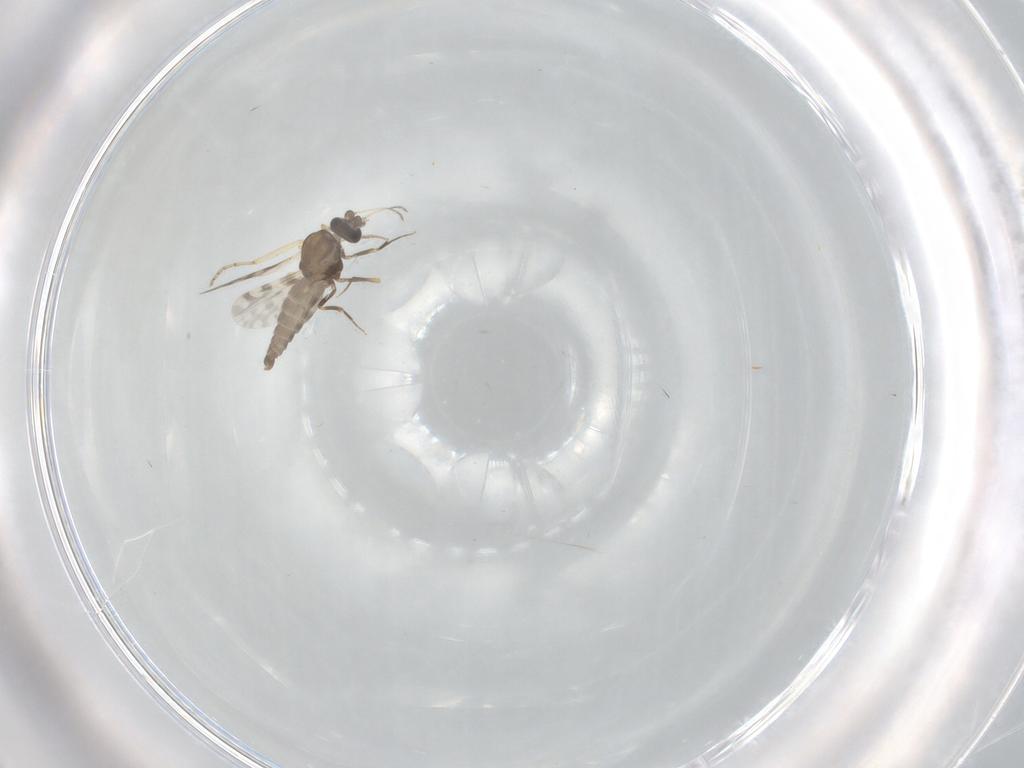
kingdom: Animalia
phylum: Arthropoda
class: Insecta
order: Diptera
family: Ceratopogonidae
